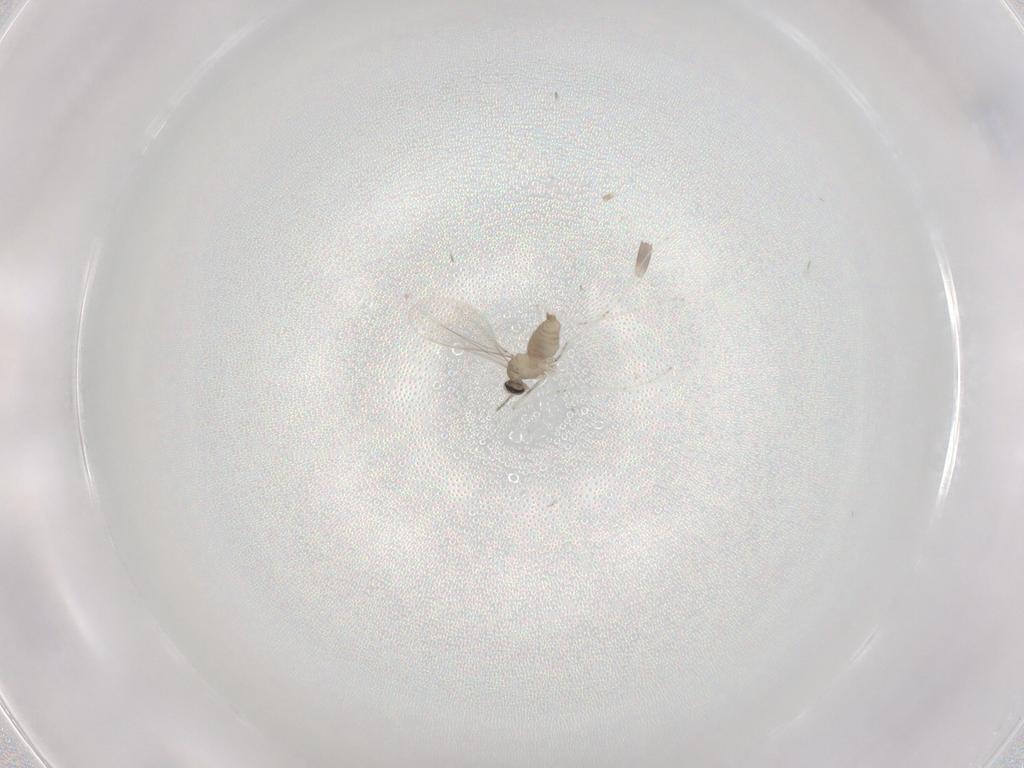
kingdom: Animalia
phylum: Arthropoda
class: Insecta
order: Diptera
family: Cecidomyiidae
